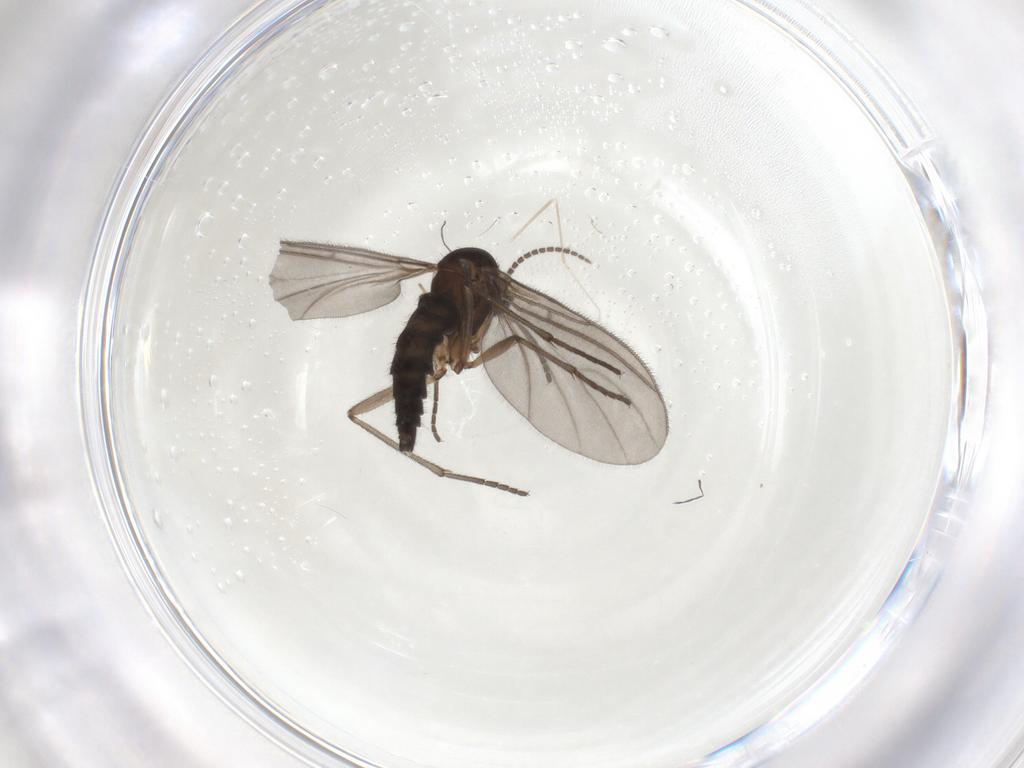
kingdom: Animalia
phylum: Arthropoda
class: Insecta
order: Diptera
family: Sciaridae
